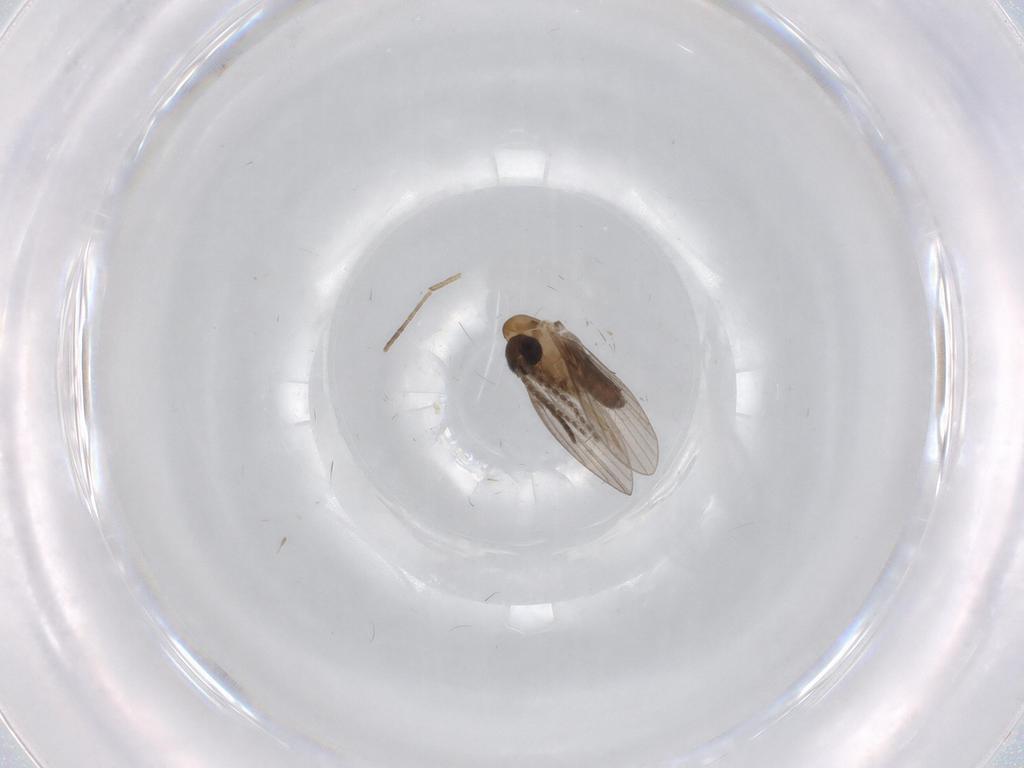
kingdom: Animalia
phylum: Arthropoda
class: Insecta
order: Diptera
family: Cecidomyiidae
